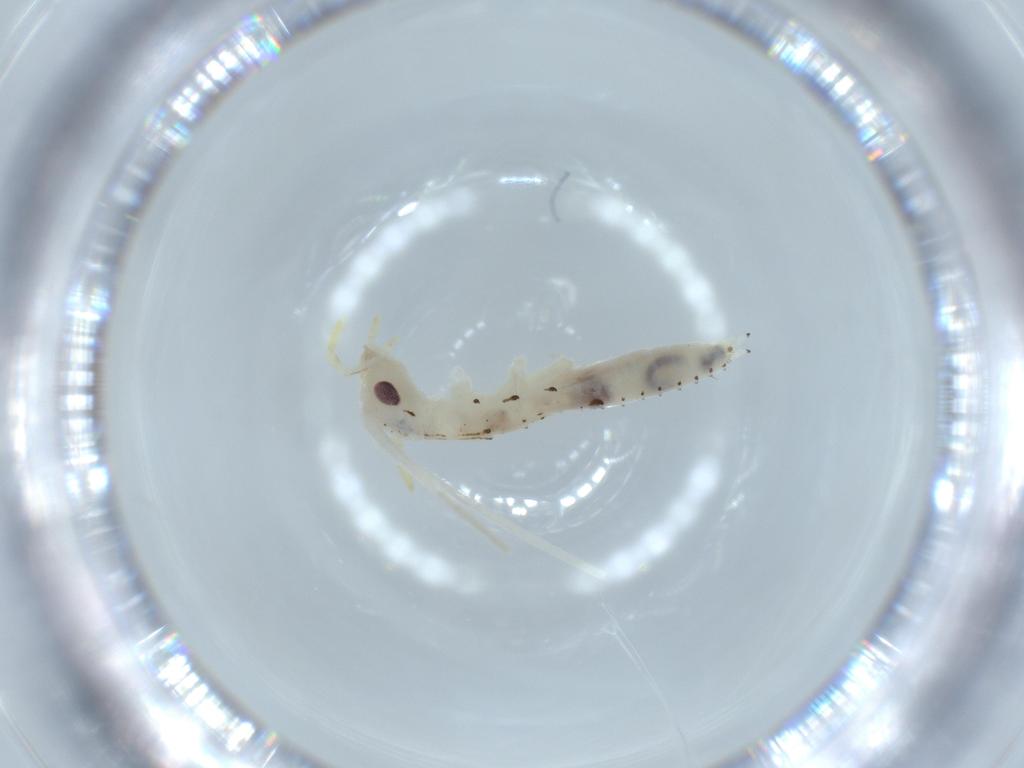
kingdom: Animalia
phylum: Arthropoda
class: Insecta
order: Orthoptera
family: Oecanthidae
